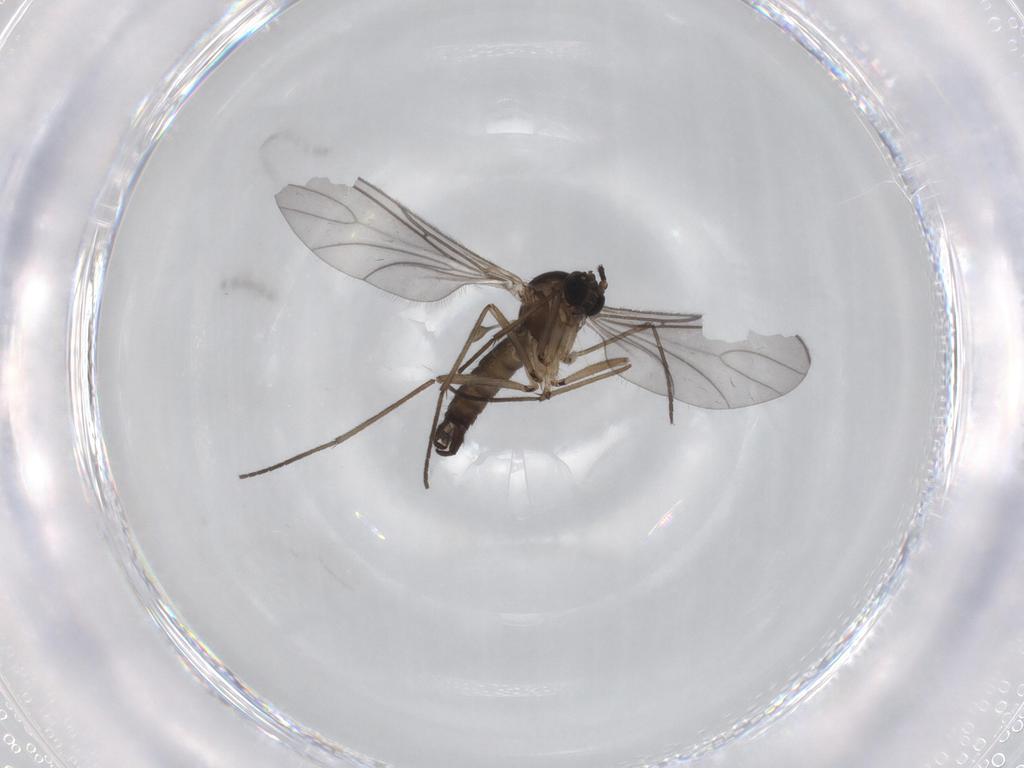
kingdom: Animalia
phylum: Arthropoda
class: Insecta
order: Diptera
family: Sciaridae
